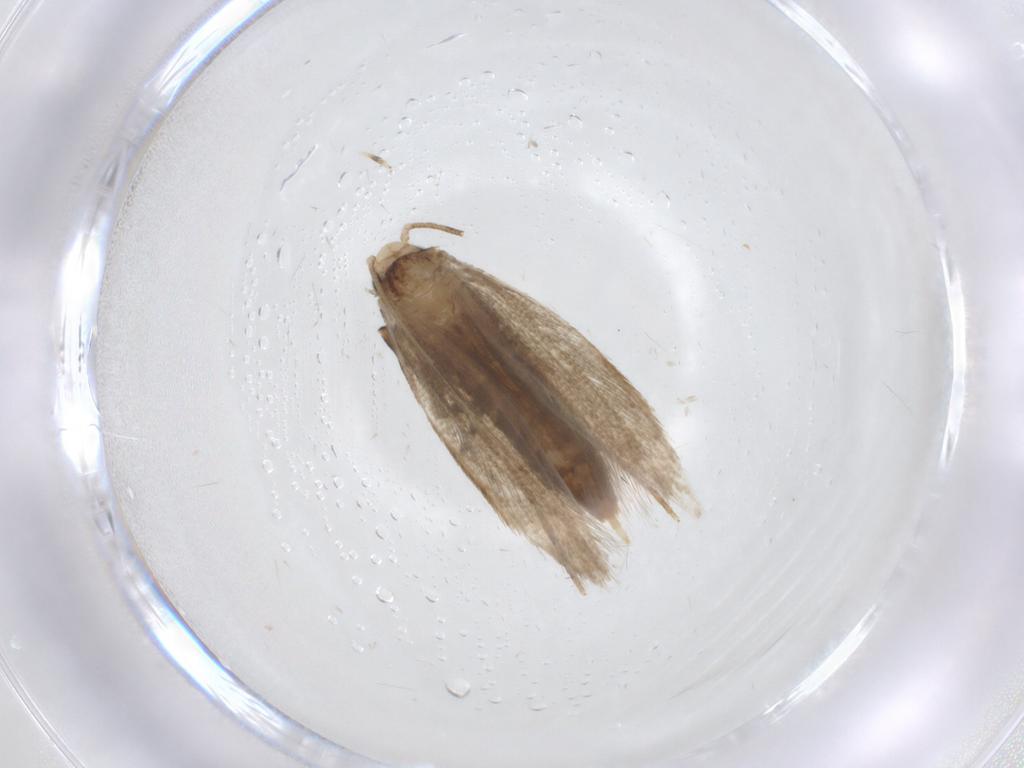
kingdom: Animalia
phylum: Arthropoda
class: Insecta
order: Lepidoptera
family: Tineidae
